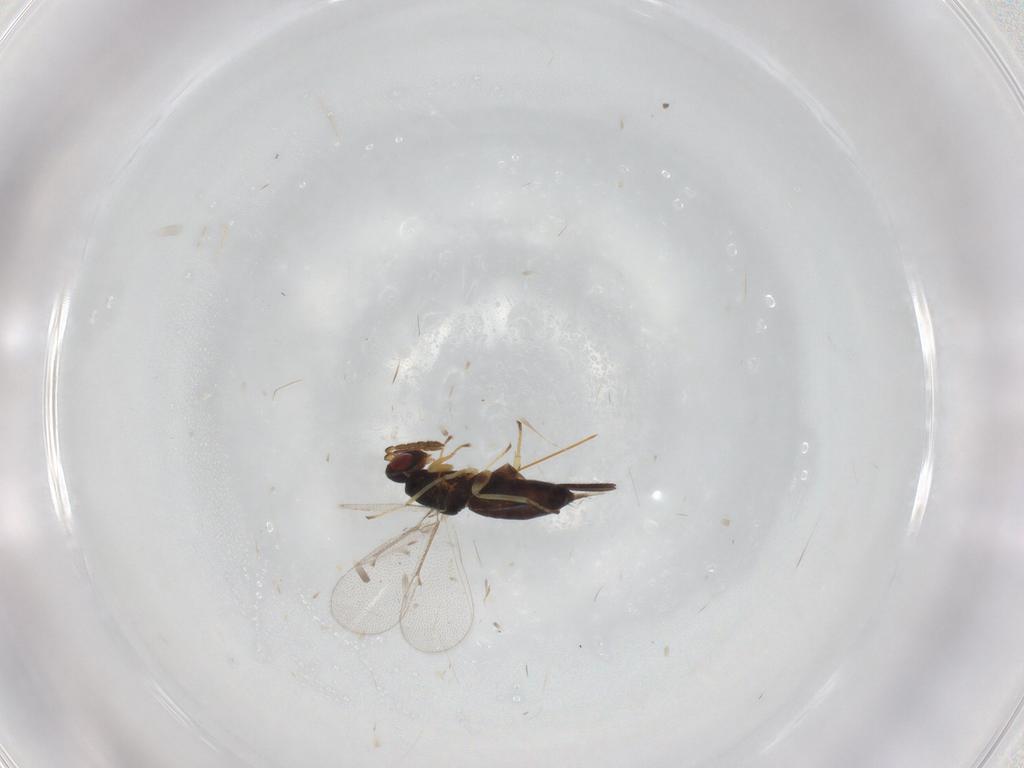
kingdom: Animalia
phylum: Arthropoda
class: Insecta
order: Hymenoptera
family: Eulophidae
